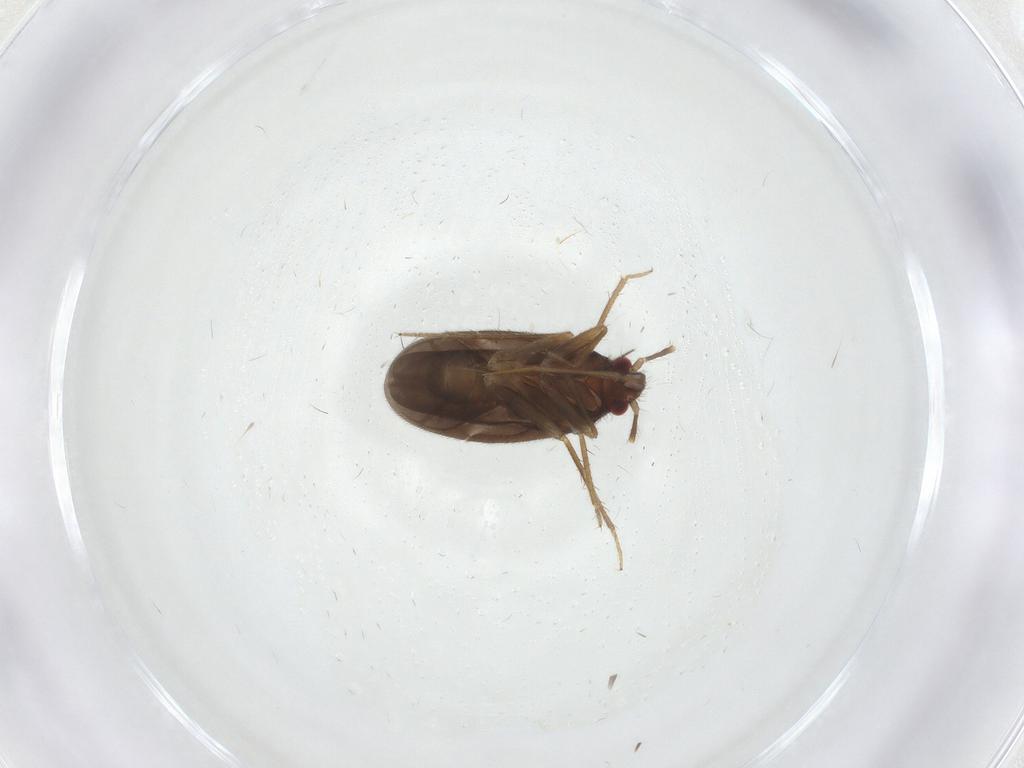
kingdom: Animalia
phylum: Arthropoda
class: Insecta
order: Hemiptera
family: Ceratocombidae
